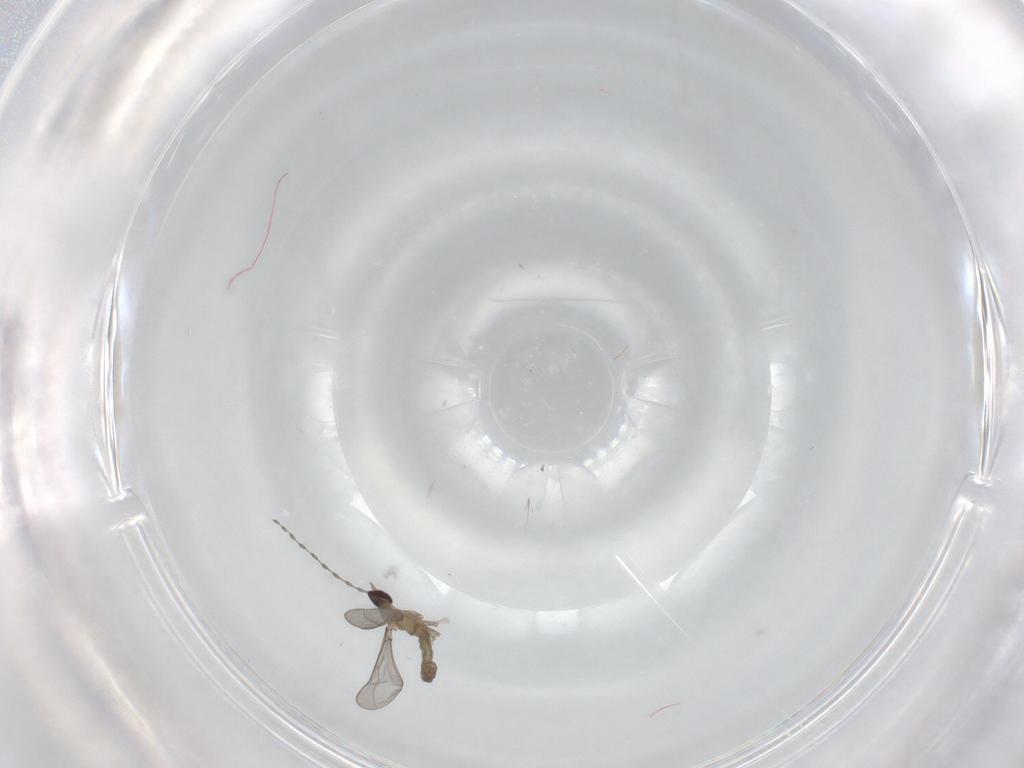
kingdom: Animalia
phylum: Arthropoda
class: Insecta
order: Diptera
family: Cecidomyiidae
